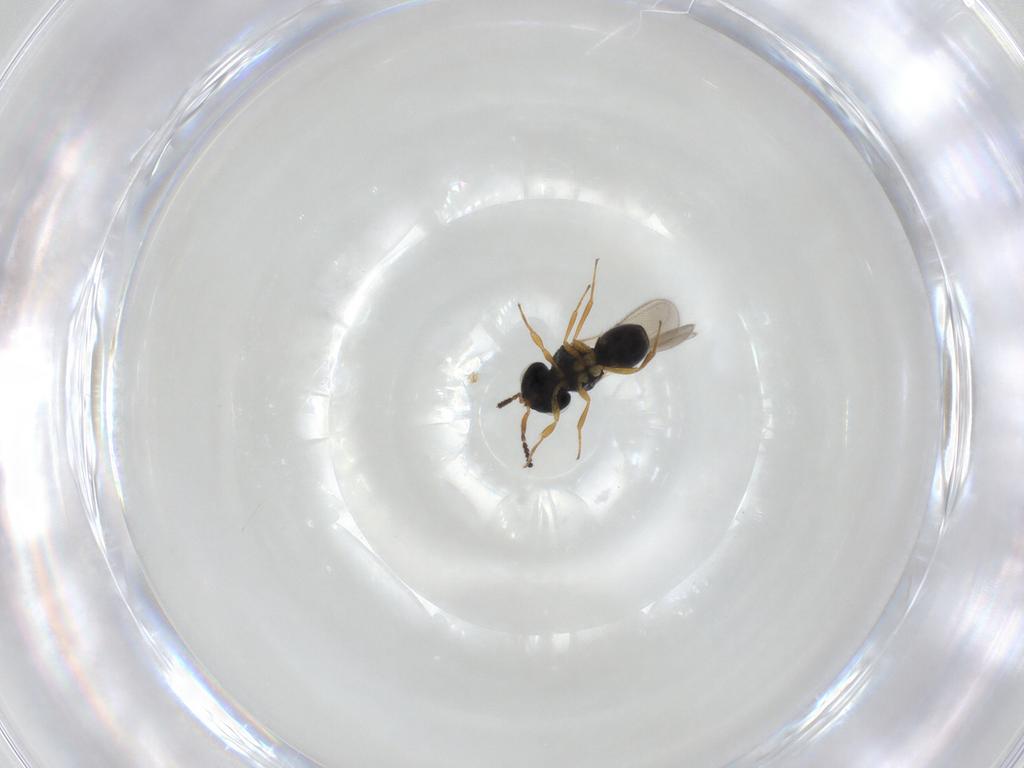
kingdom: Animalia
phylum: Arthropoda
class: Insecta
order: Hymenoptera
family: Scelionidae
